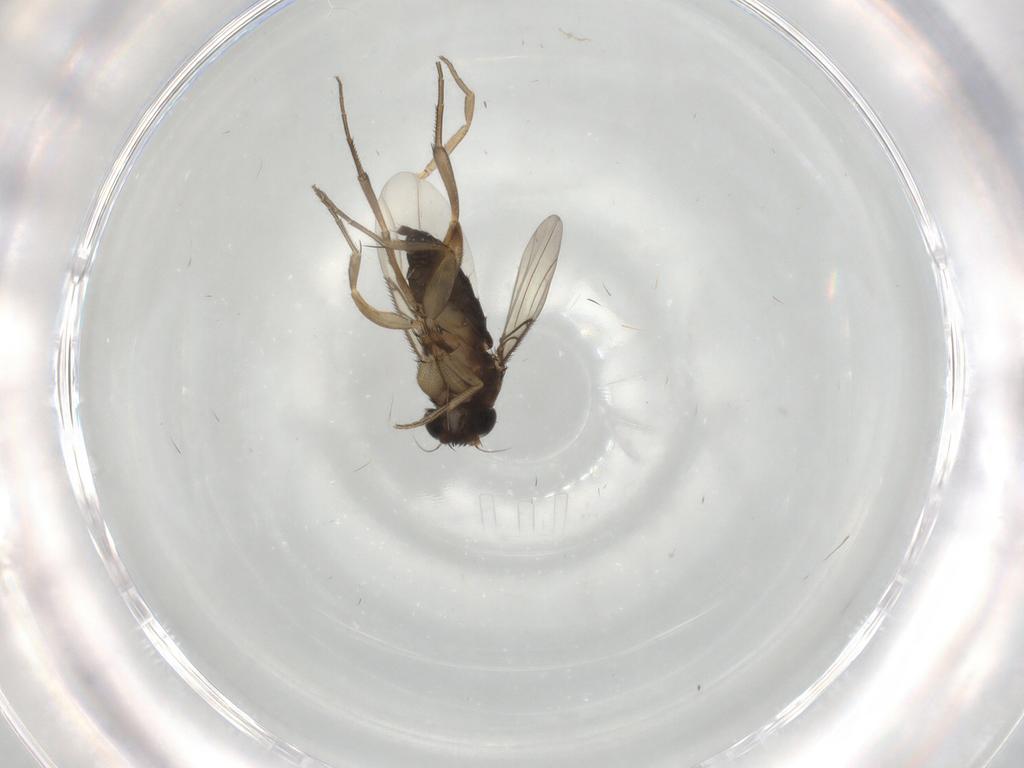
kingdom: Animalia
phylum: Arthropoda
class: Insecta
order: Diptera
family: Phoridae
